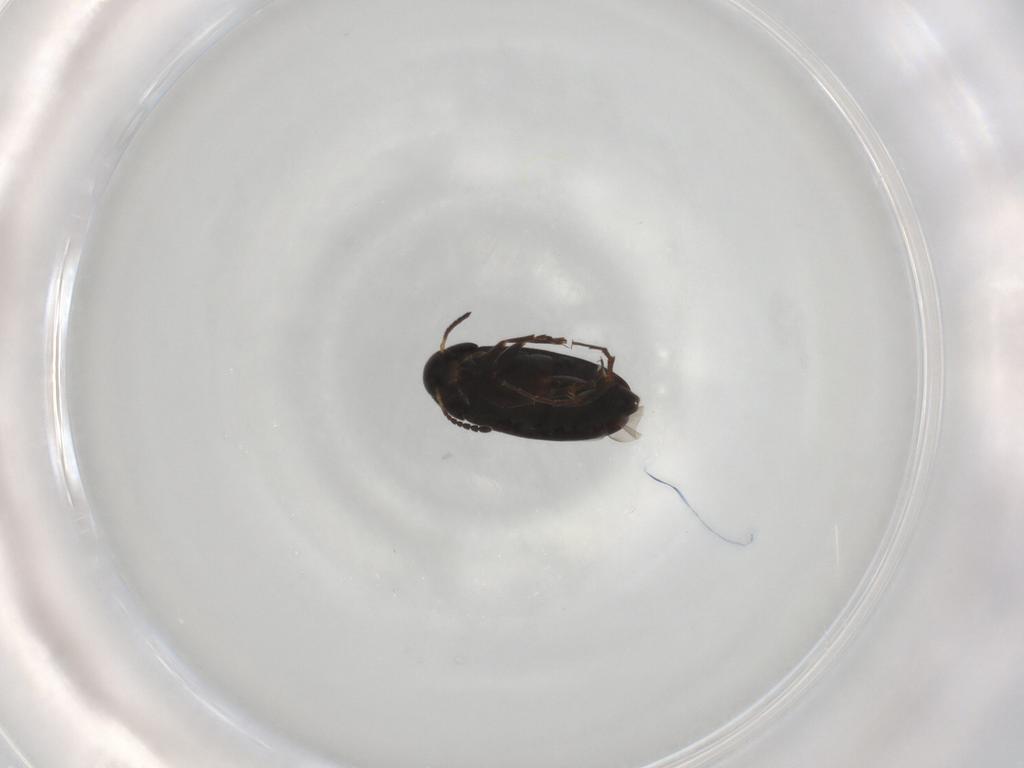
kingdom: Animalia
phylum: Arthropoda
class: Insecta
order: Coleoptera
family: Scraptiidae
